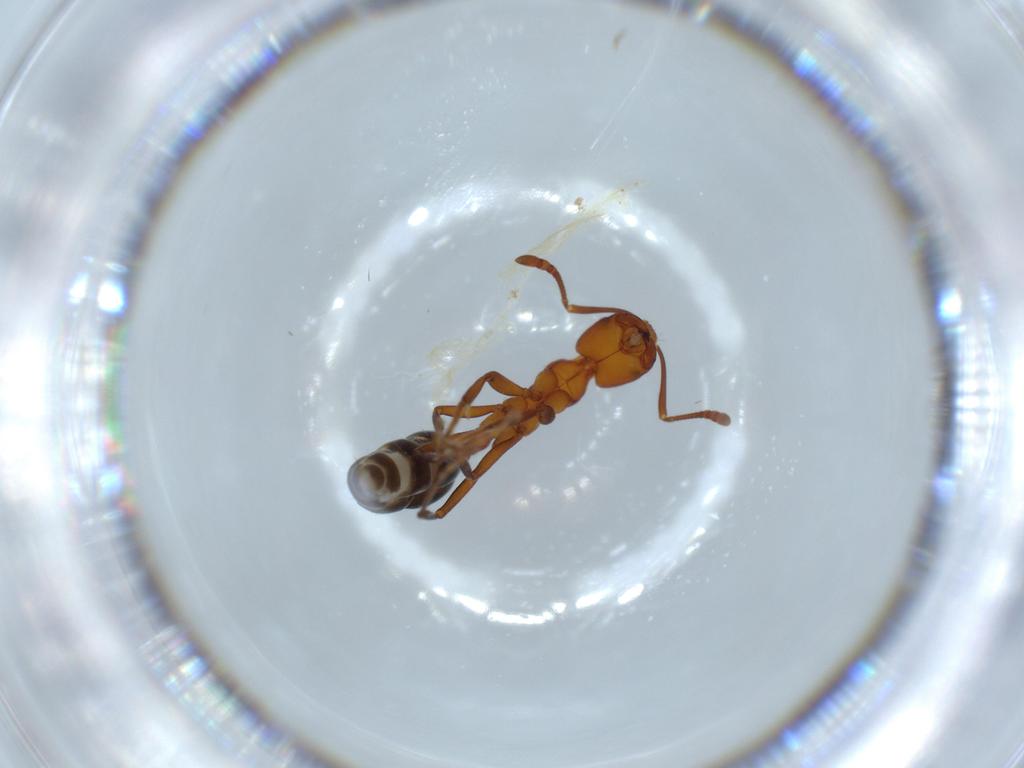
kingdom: Animalia
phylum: Arthropoda
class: Insecta
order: Hymenoptera
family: Formicidae
